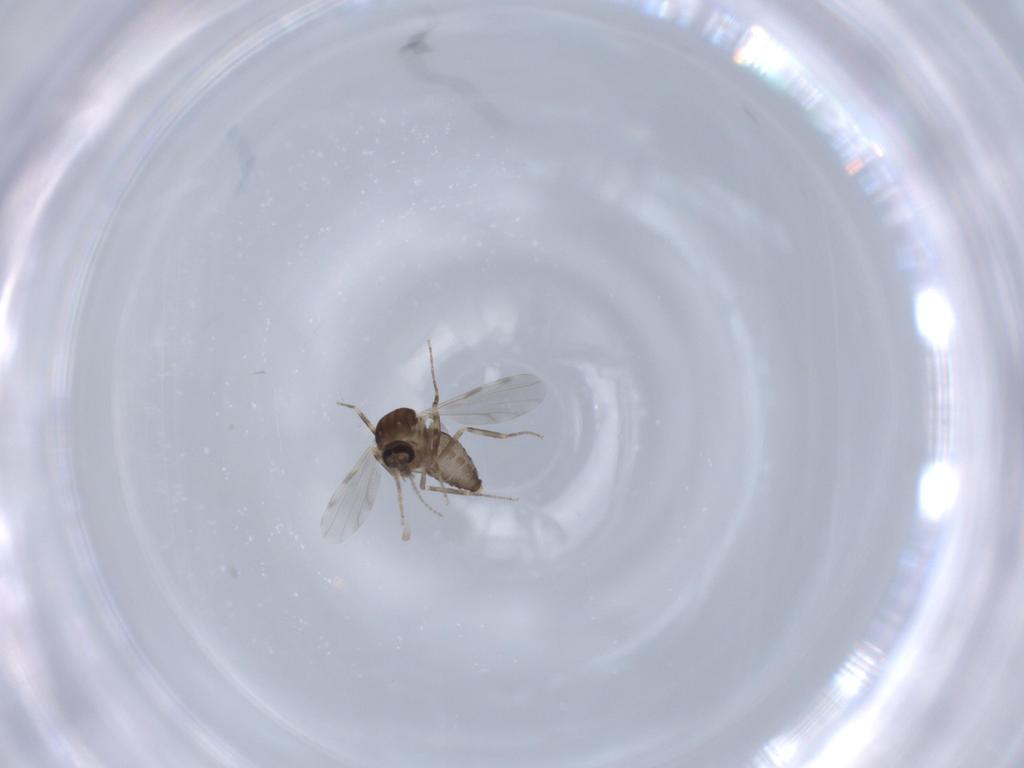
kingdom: Animalia
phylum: Arthropoda
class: Insecta
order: Diptera
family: Ceratopogonidae
